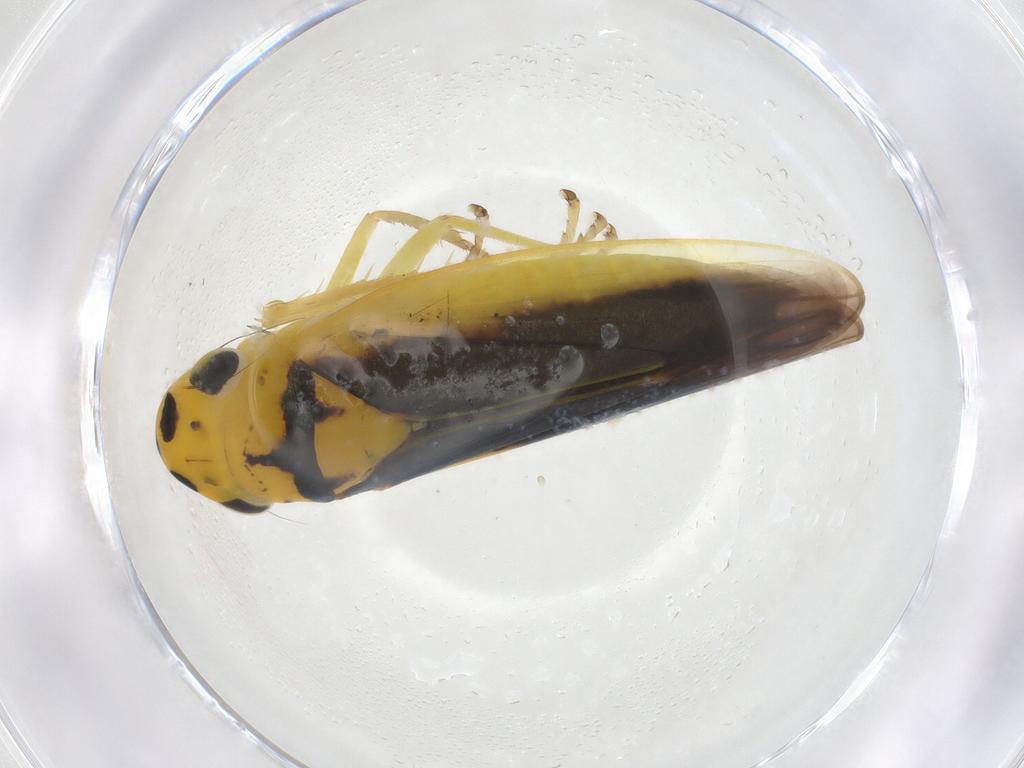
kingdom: Animalia
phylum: Arthropoda
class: Insecta
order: Hemiptera
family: Cicadellidae
